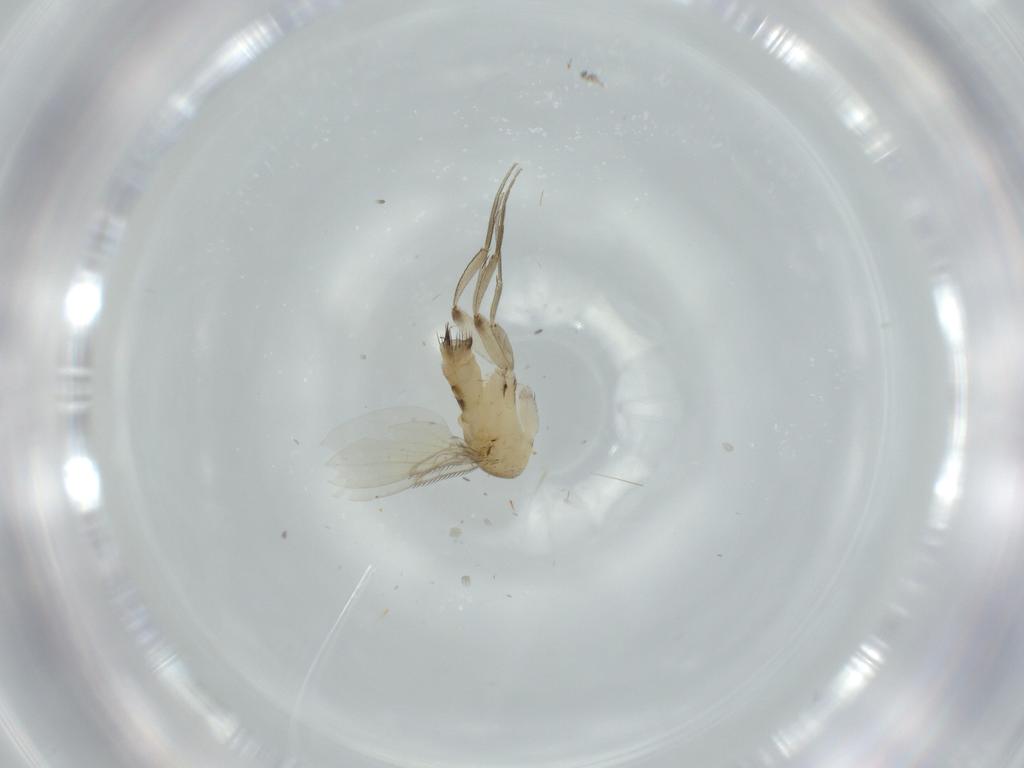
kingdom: Animalia
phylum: Arthropoda
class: Insecta
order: Diptera
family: Phoridae
